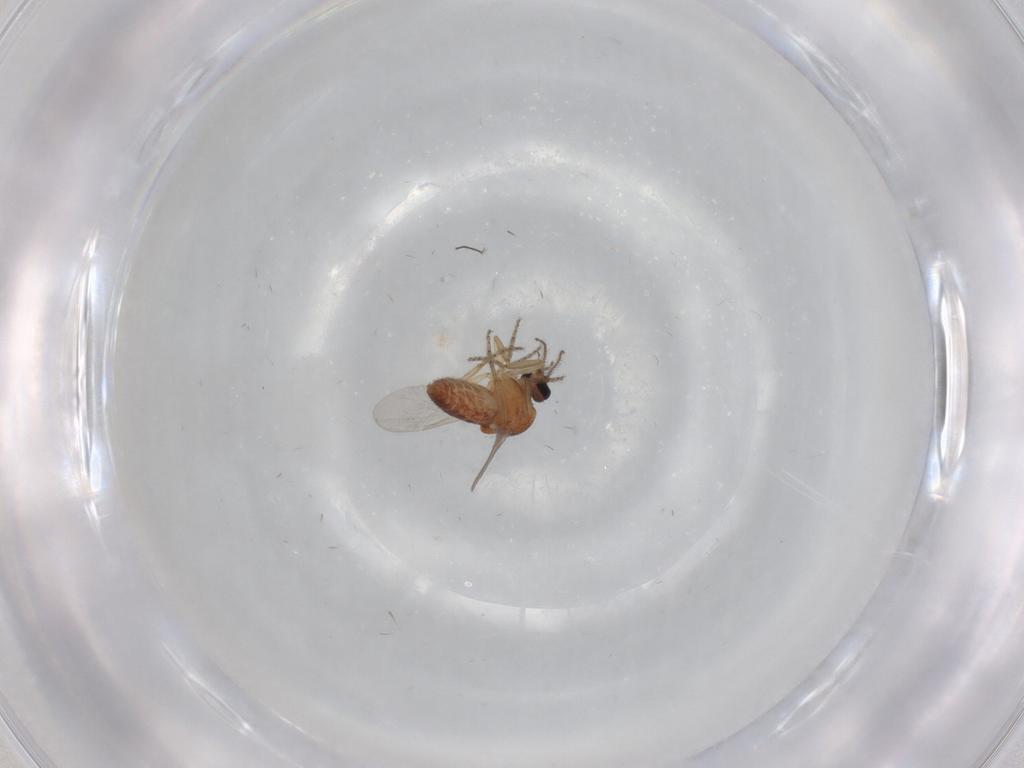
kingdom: Animalia
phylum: Arthropoda
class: Insecta
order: Diptera
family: Ceratopogonidae
